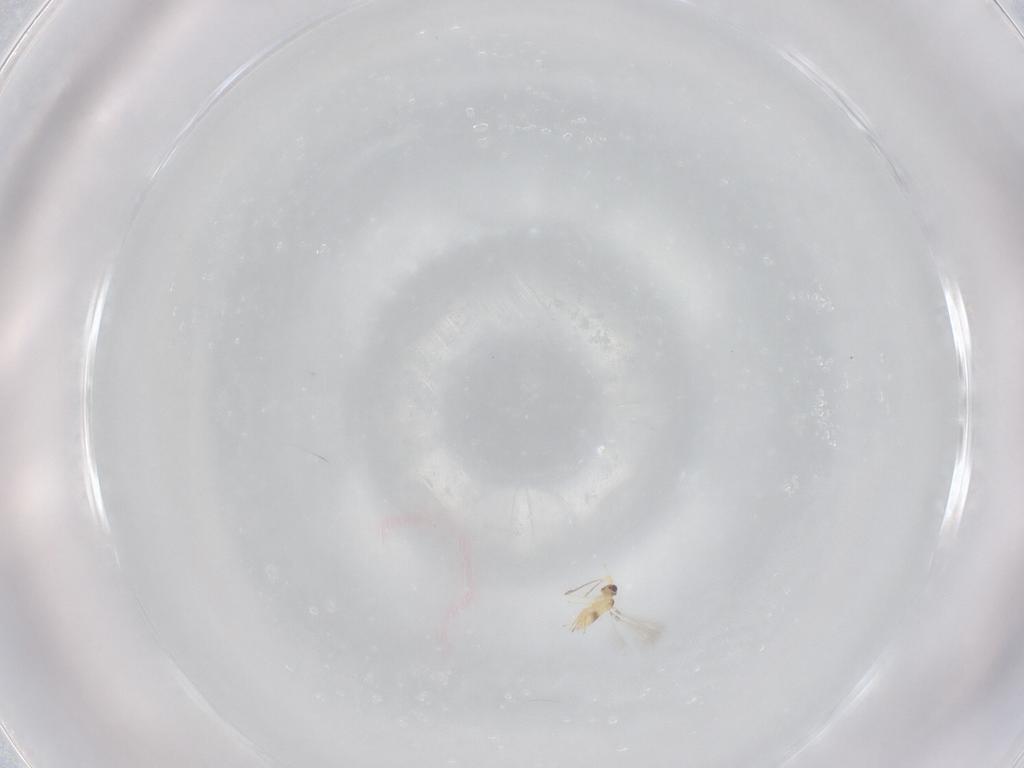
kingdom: Animalia
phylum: Arthropoda
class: Insecta
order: Hymenoptera
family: Mymaridae
